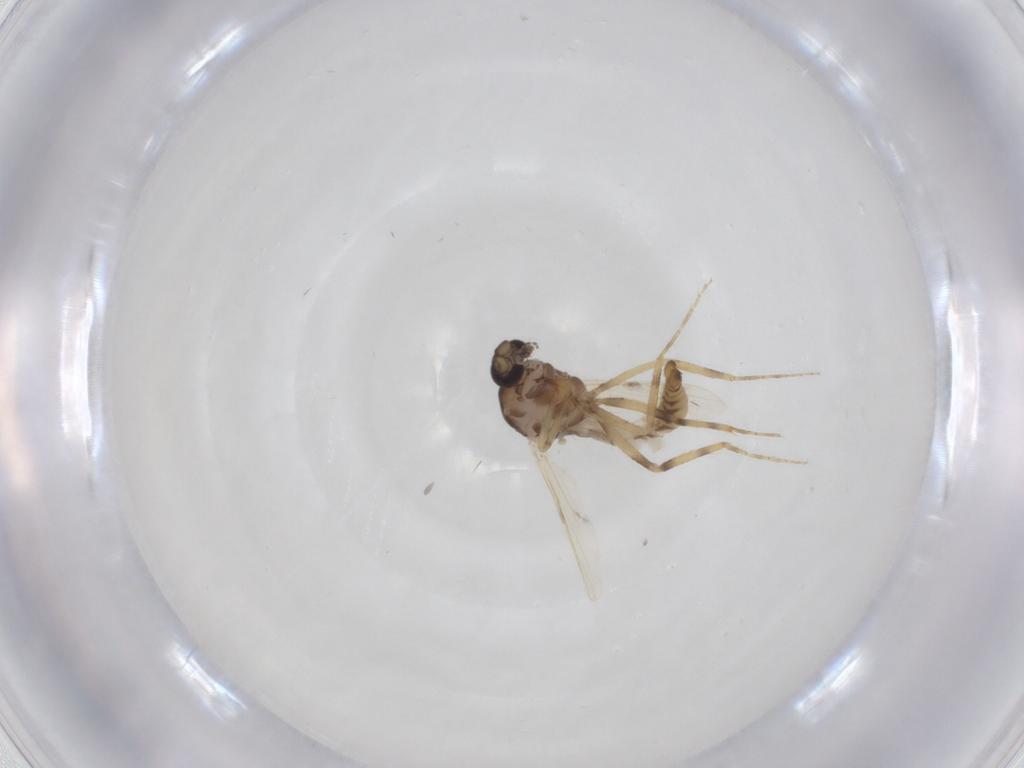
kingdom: Animalia
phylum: Arthropoda
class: Insecta
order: Diptera
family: Ceratopogonidae
